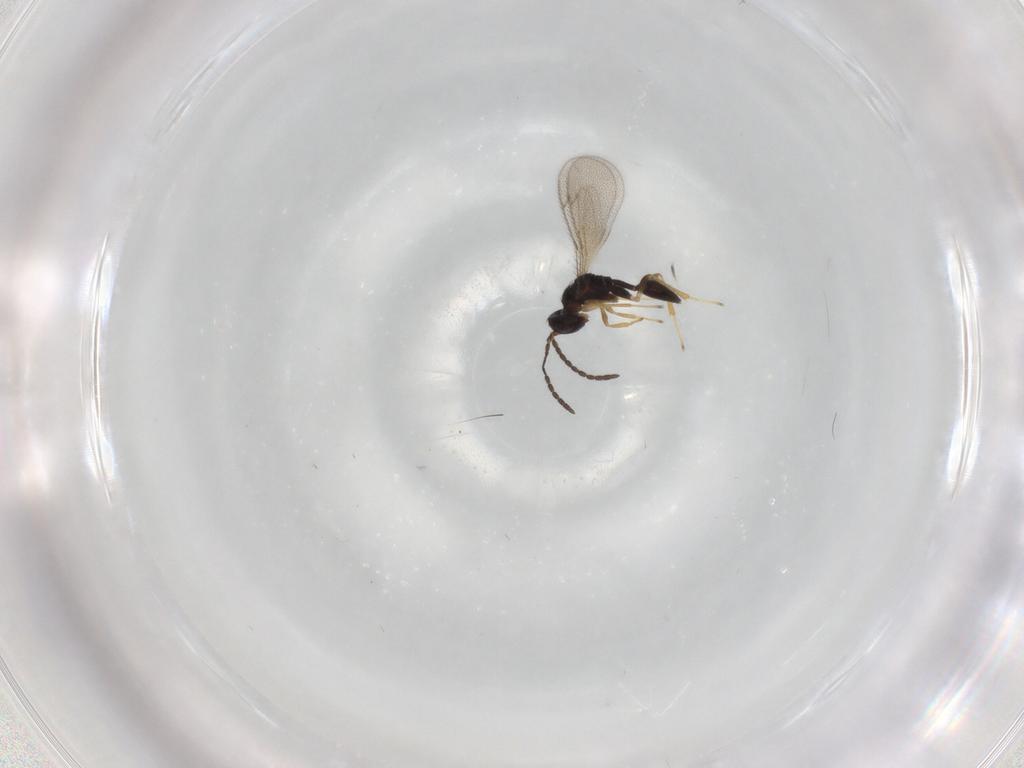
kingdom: Animalia
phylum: Arthropoda
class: Insecta
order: Hymenoptera
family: Diparidae
